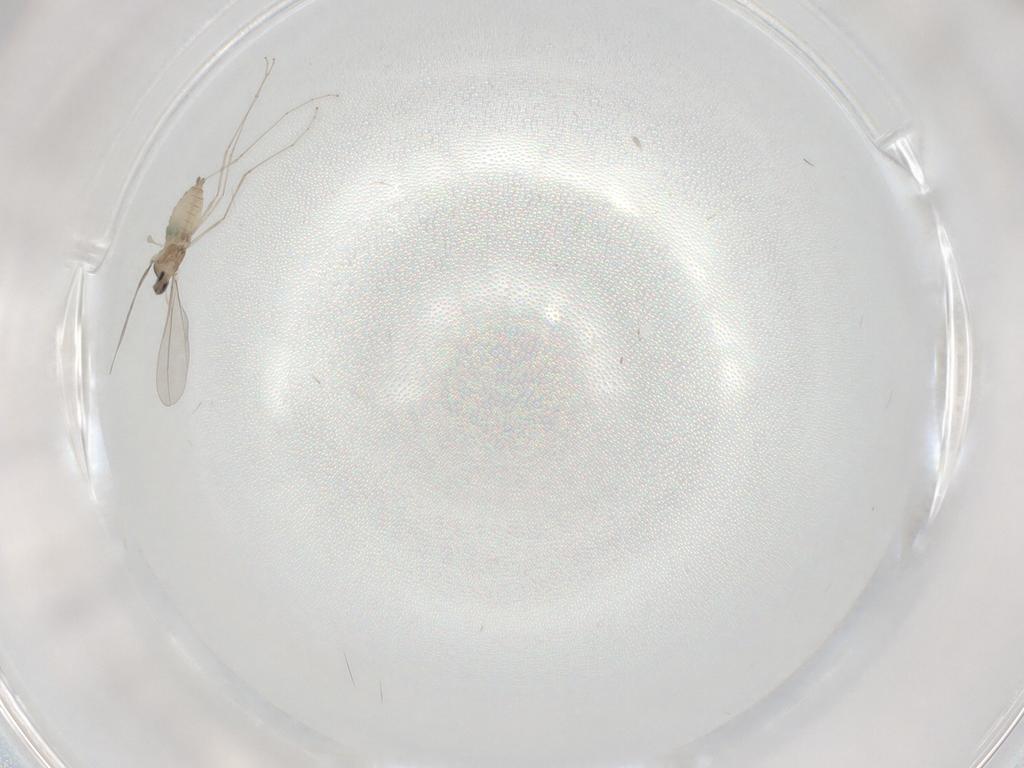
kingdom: Animalia
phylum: Arthropoda
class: Insecta
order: Diptera
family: Cecidomyiidae
